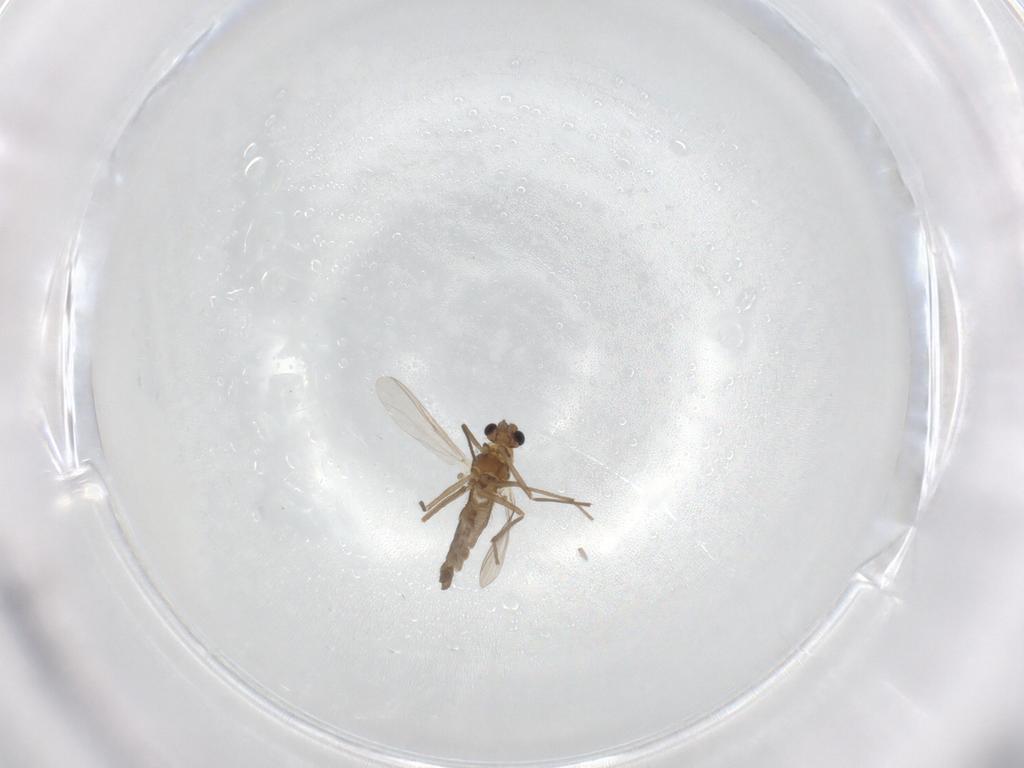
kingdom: Animalia
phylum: Arthropoda
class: Insecta
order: Diptera
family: Chironomidae
